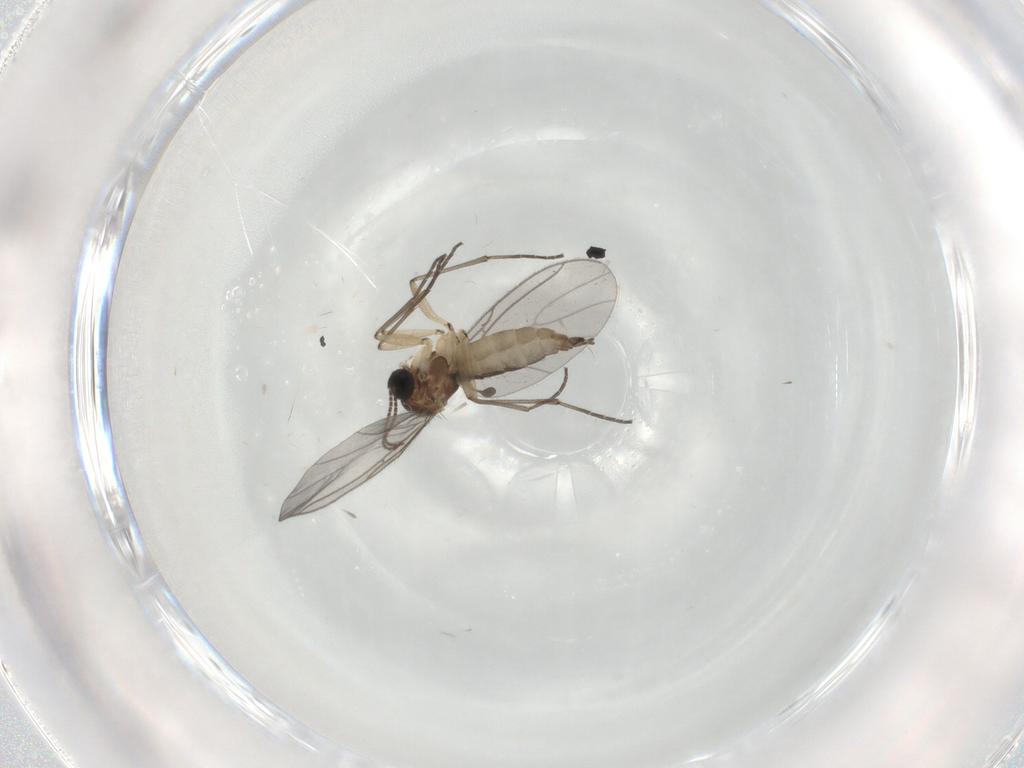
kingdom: Animalia
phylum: Arthropoda
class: Insecta
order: Diptera
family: Sciaridae
